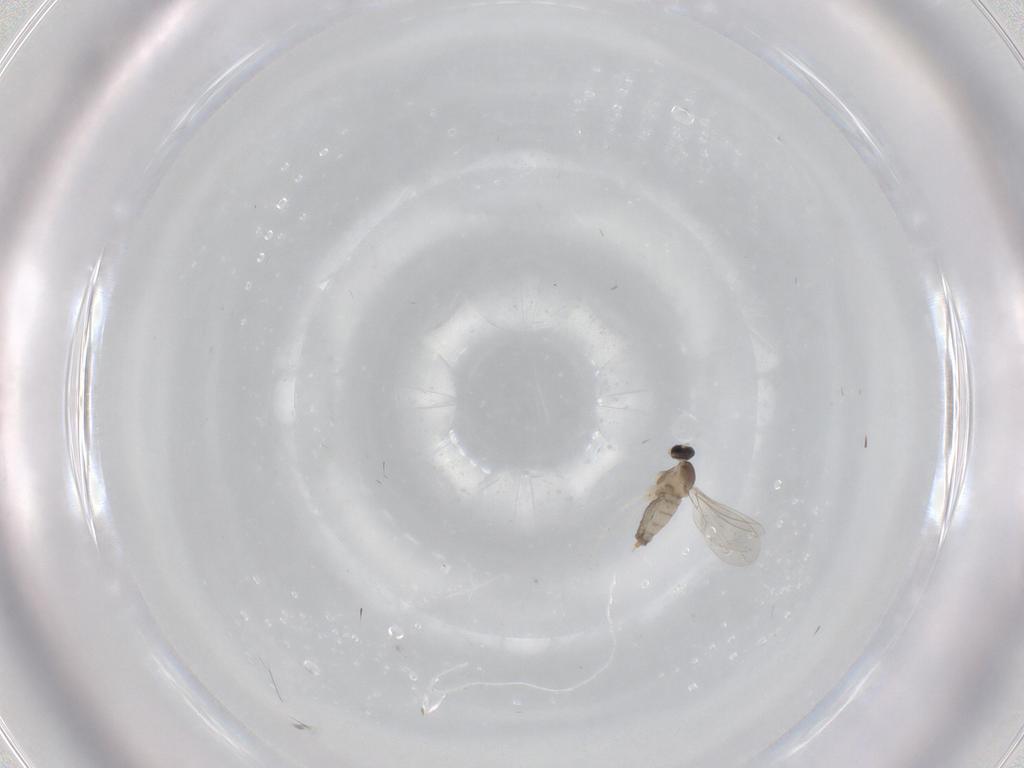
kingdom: Animalia
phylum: Arthropoda
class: Insecta
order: Diptera
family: Cecidomyiidae
